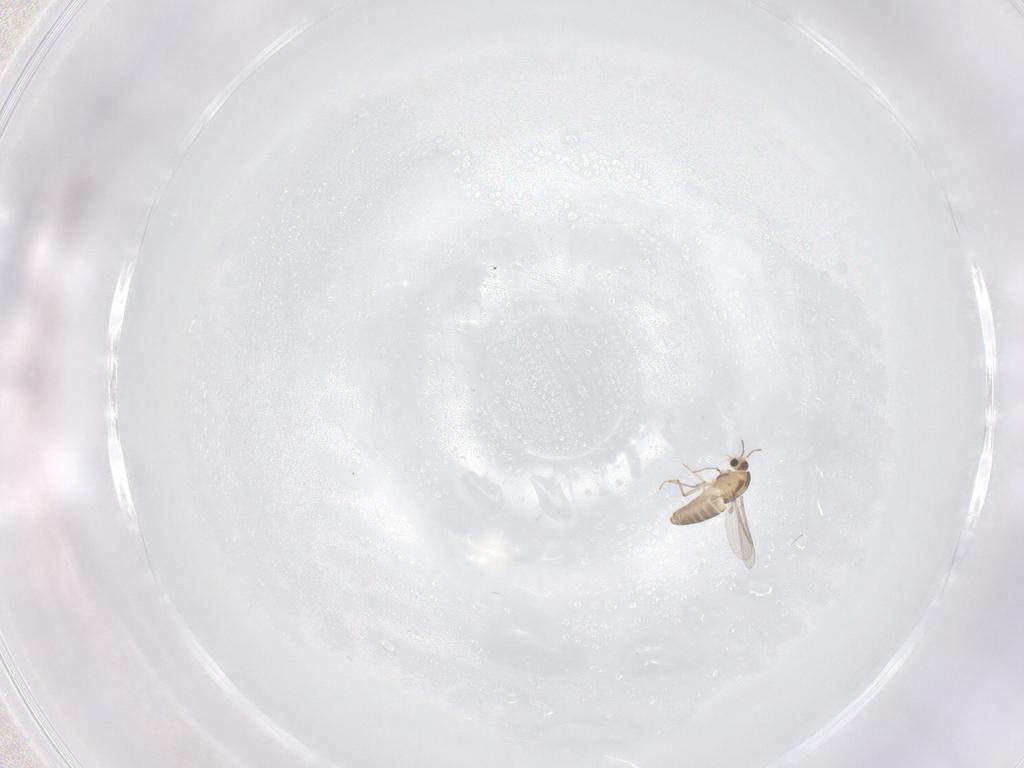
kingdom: Animalia
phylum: Arthropoda
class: Insecta
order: Diptera
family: Chironomidae
